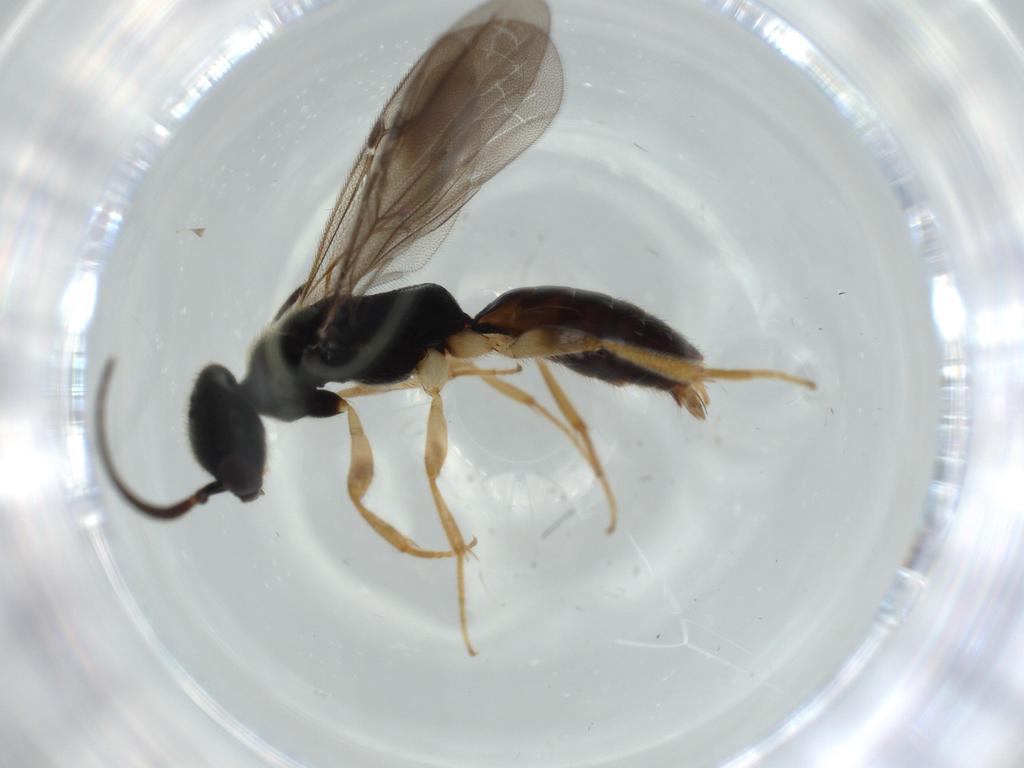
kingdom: Animalia
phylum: Arthropoda
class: Insecta
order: Hymenoptera
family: Bethylidae
